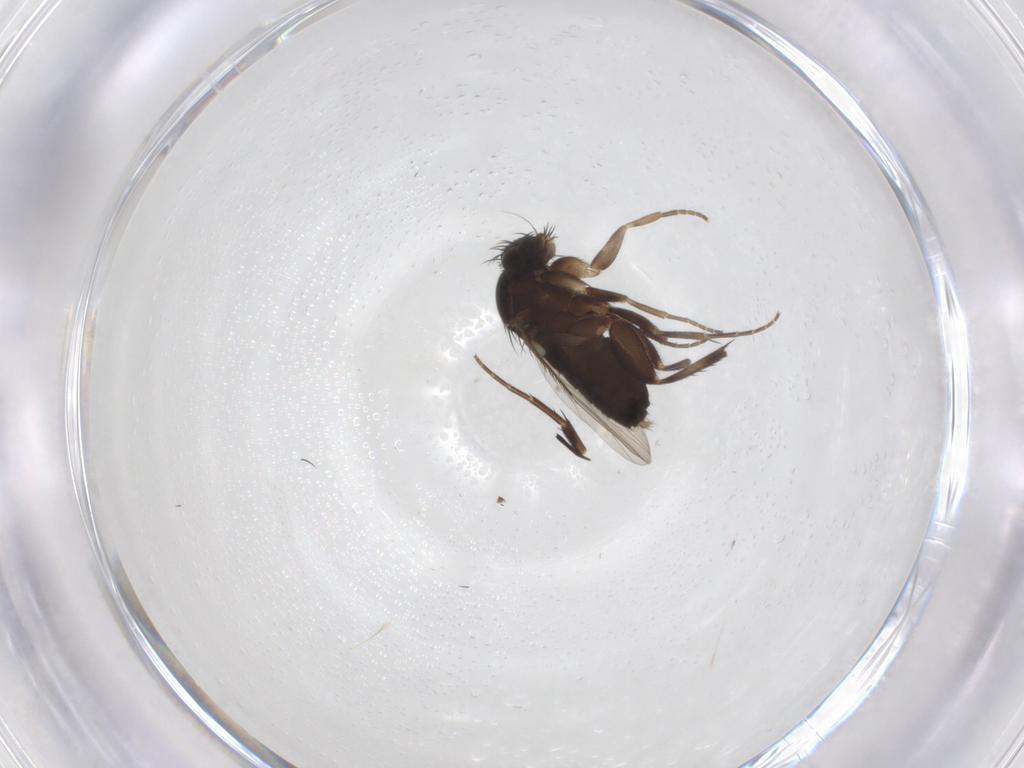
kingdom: Animalia
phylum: Arthropoda
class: Insecta
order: Diptera
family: Phoridae
